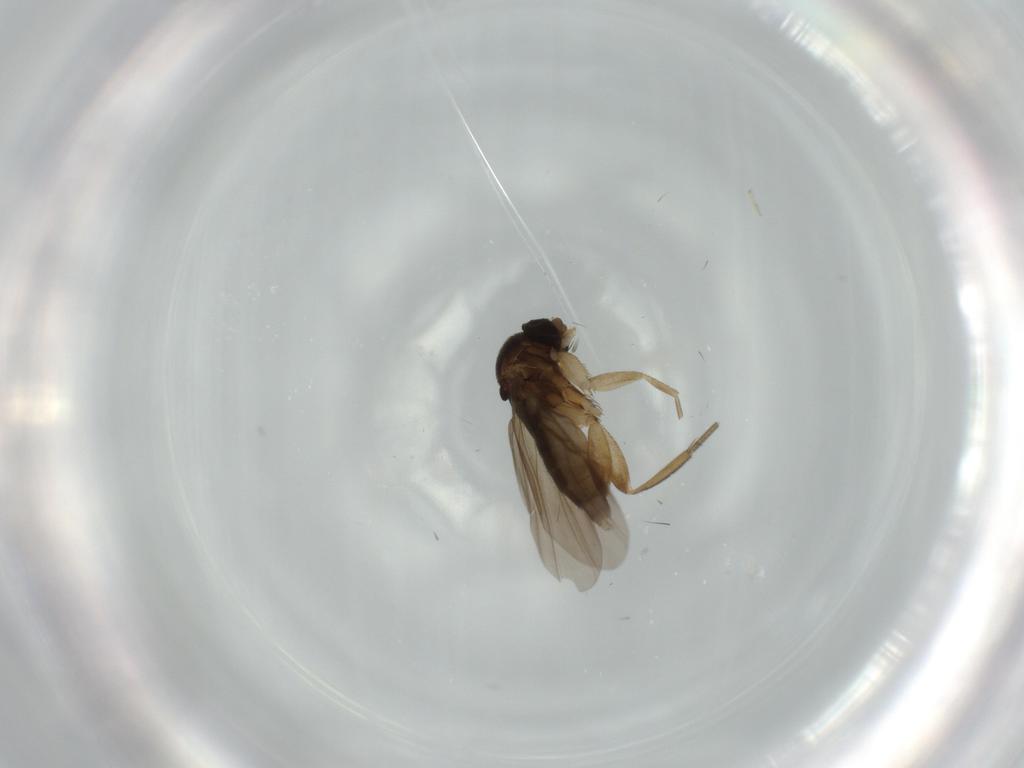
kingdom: Animalia
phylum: Arthropoda
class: Insecta
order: Diptera
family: Phoridae
